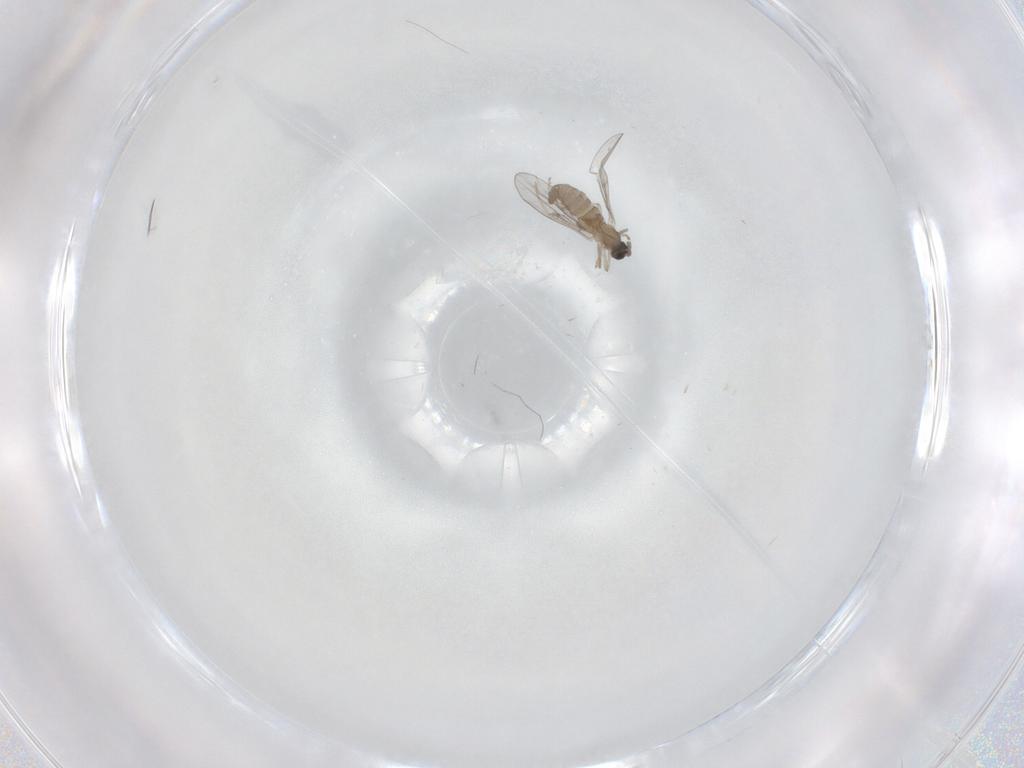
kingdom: Animalia
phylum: Arthropoda
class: Insecta
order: Diptera
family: Cecidomyiidae
